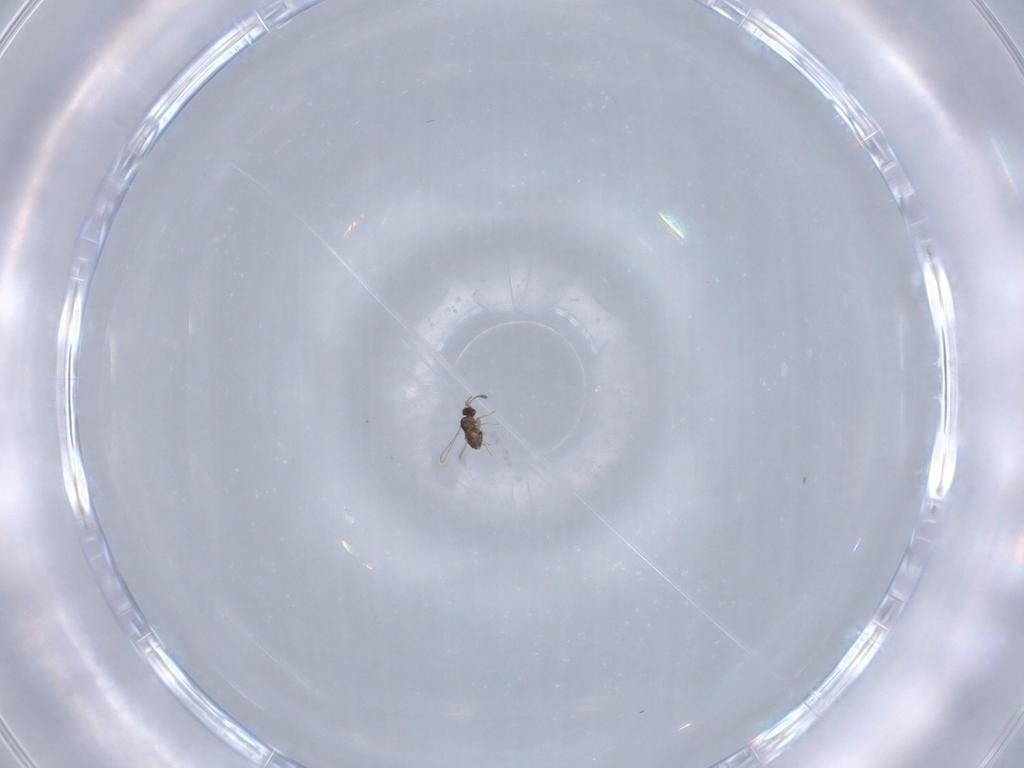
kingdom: Animalia
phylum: Arthropoda
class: Insecta
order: Hymenoptera
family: Mymaridae
